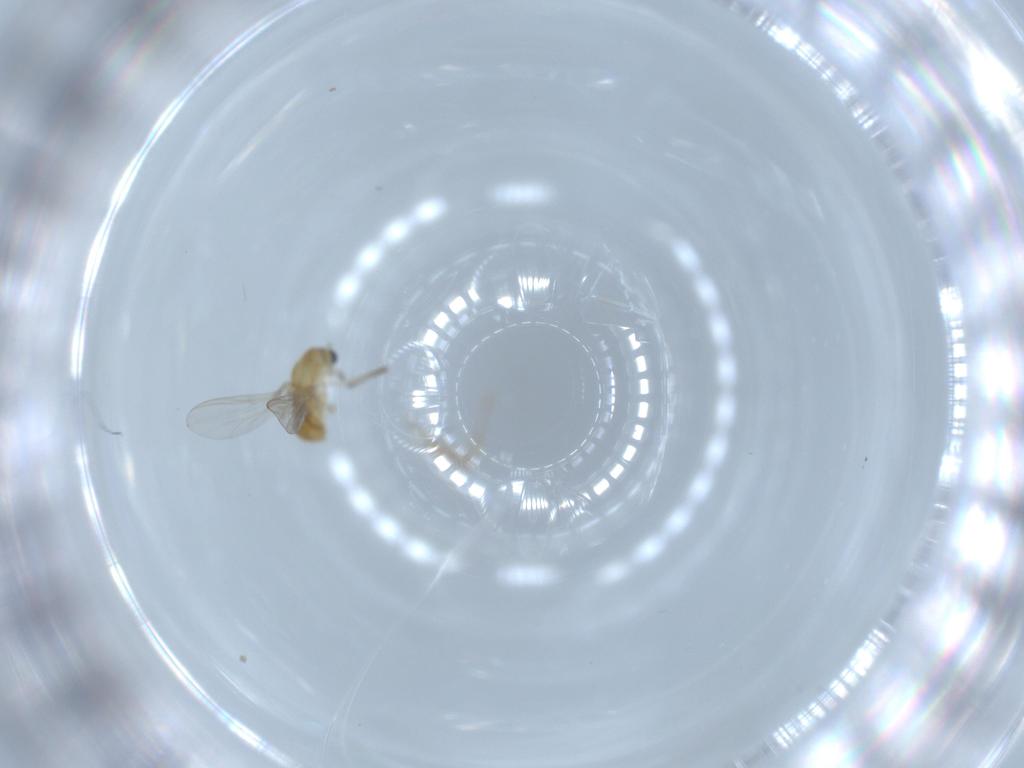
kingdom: Animalia
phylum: Arthropoda
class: Insecta
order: Diptera
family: Chironomidae
